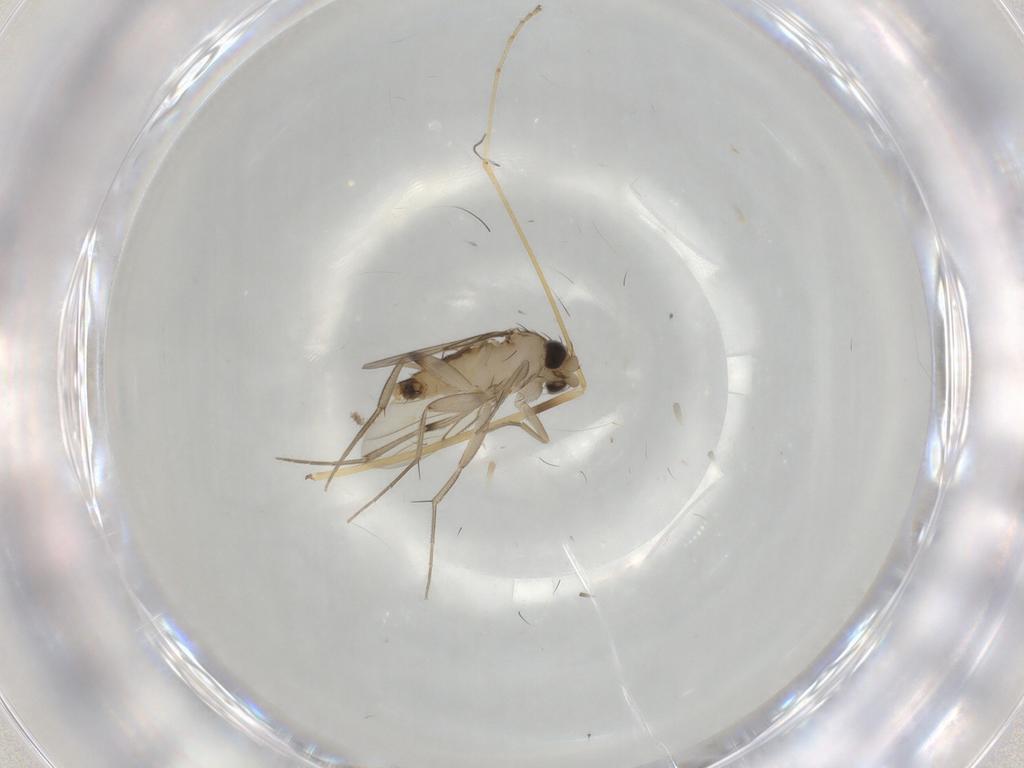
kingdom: Animalia
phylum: Arthropoda
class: Insecta
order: Diptera
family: Limoniidae
